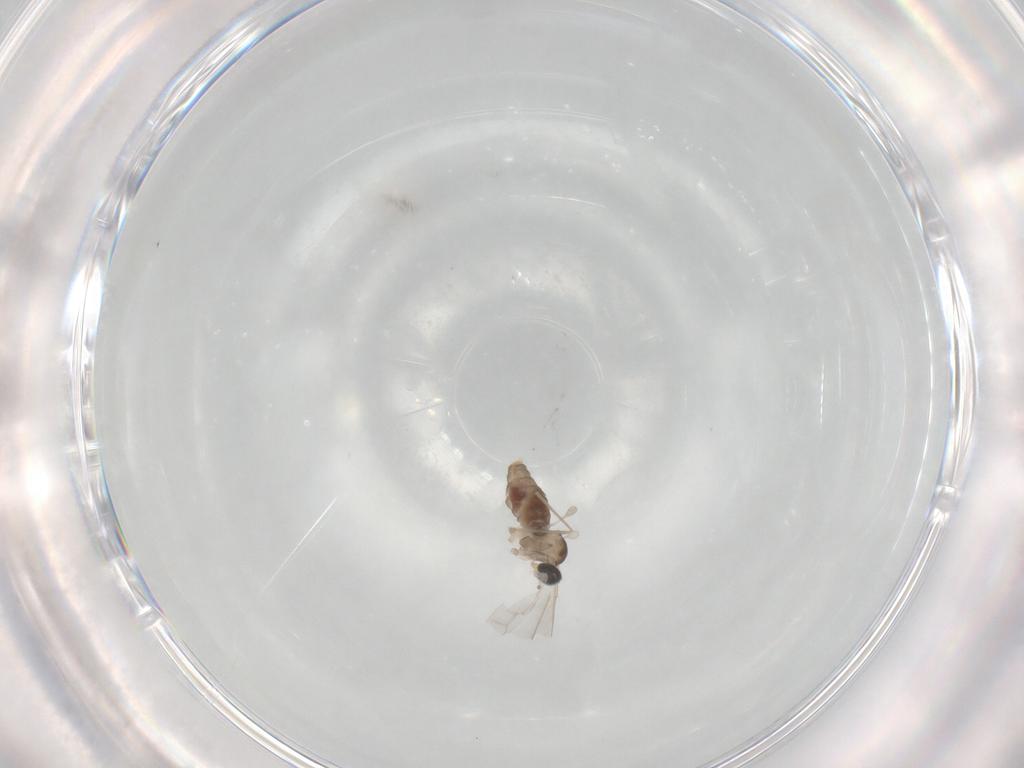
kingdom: Animalia
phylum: Arthropoda
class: Insecta
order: Diptera
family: Cecidomyiidae
